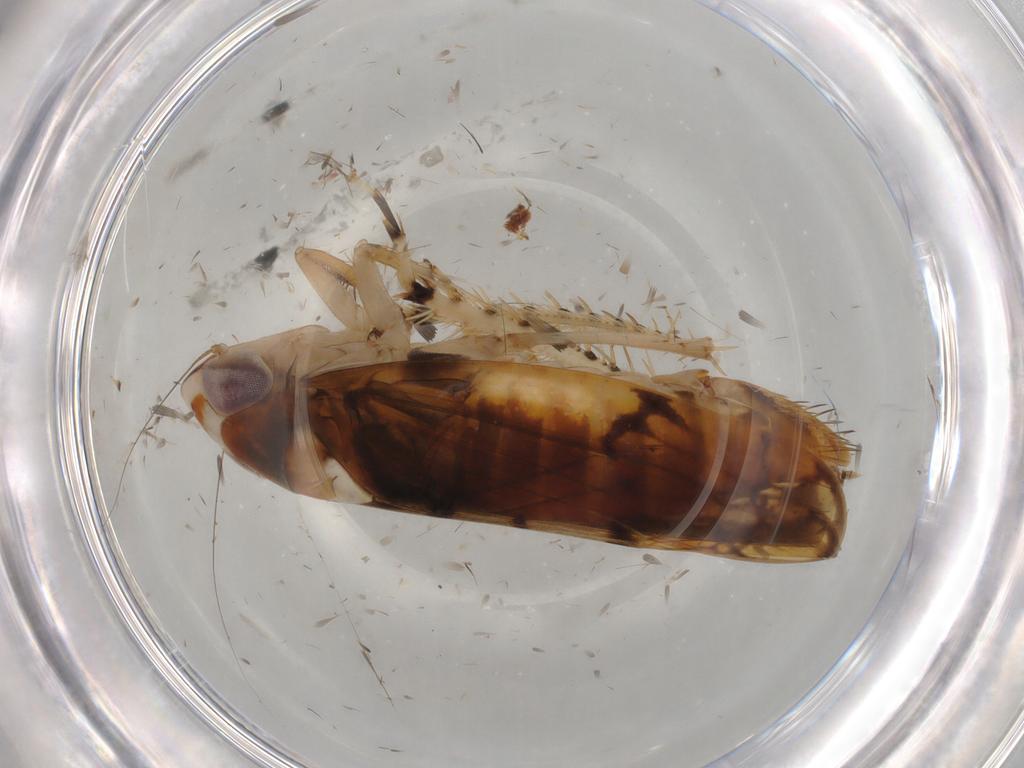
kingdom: Animalia
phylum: Arthropoda
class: Insecta
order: Hemiptera
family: Cicadellidae
